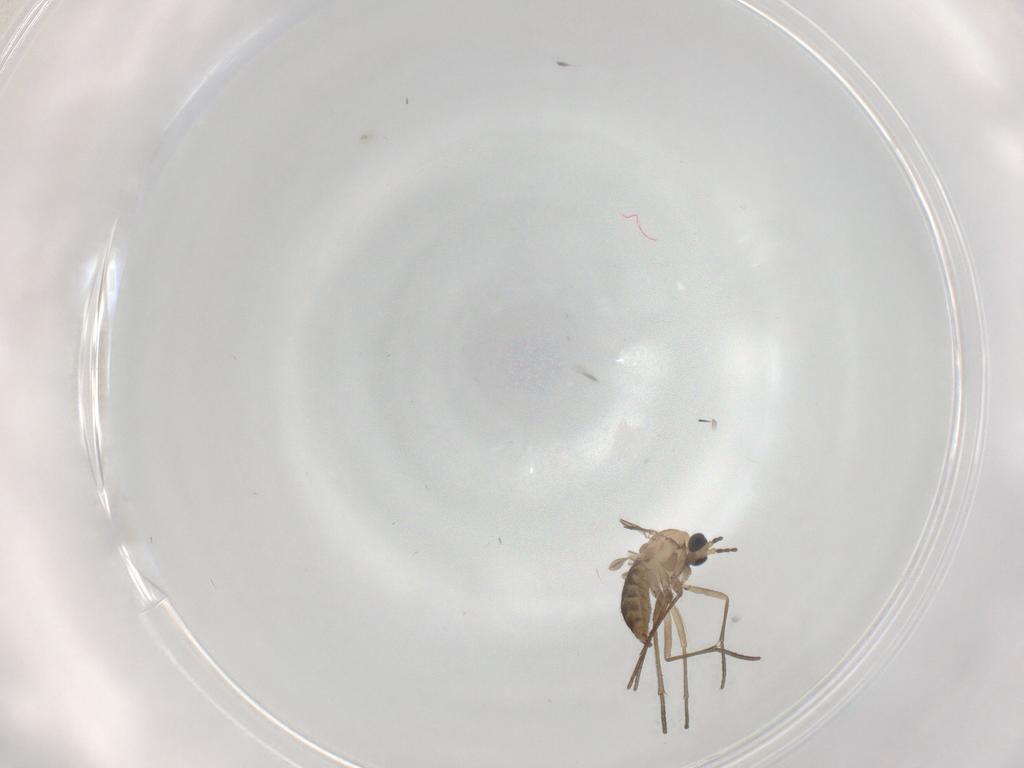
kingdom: Animalia
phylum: Arthropoda
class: Insecta
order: Diptera
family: Sciaridae
